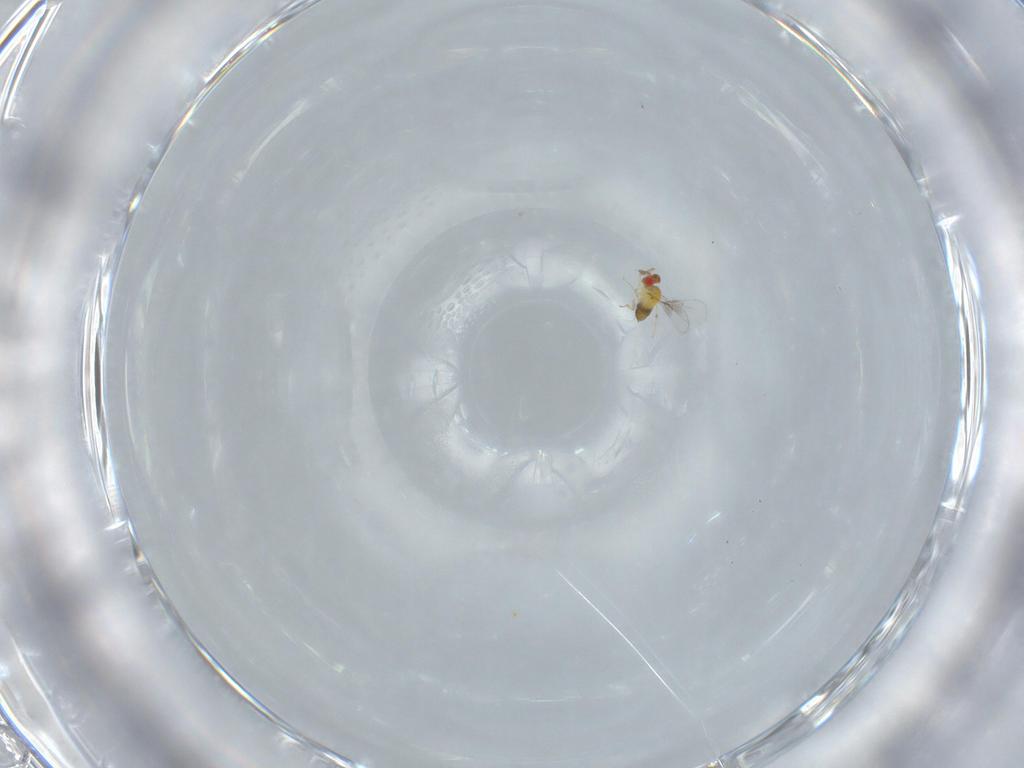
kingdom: Animalia
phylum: Arthropoda
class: Insecta
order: Hymenoptera
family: Trichogrammatidae
